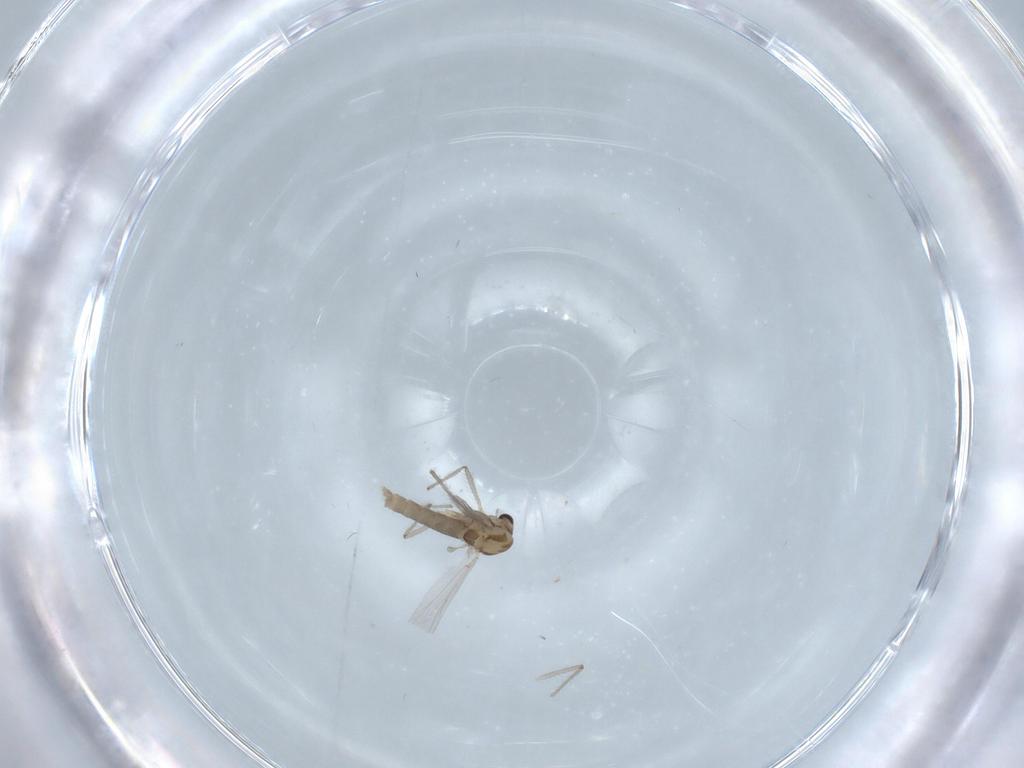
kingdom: Animalia
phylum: Arthropoda
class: Insecta
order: Diptera
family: Chironomidae
